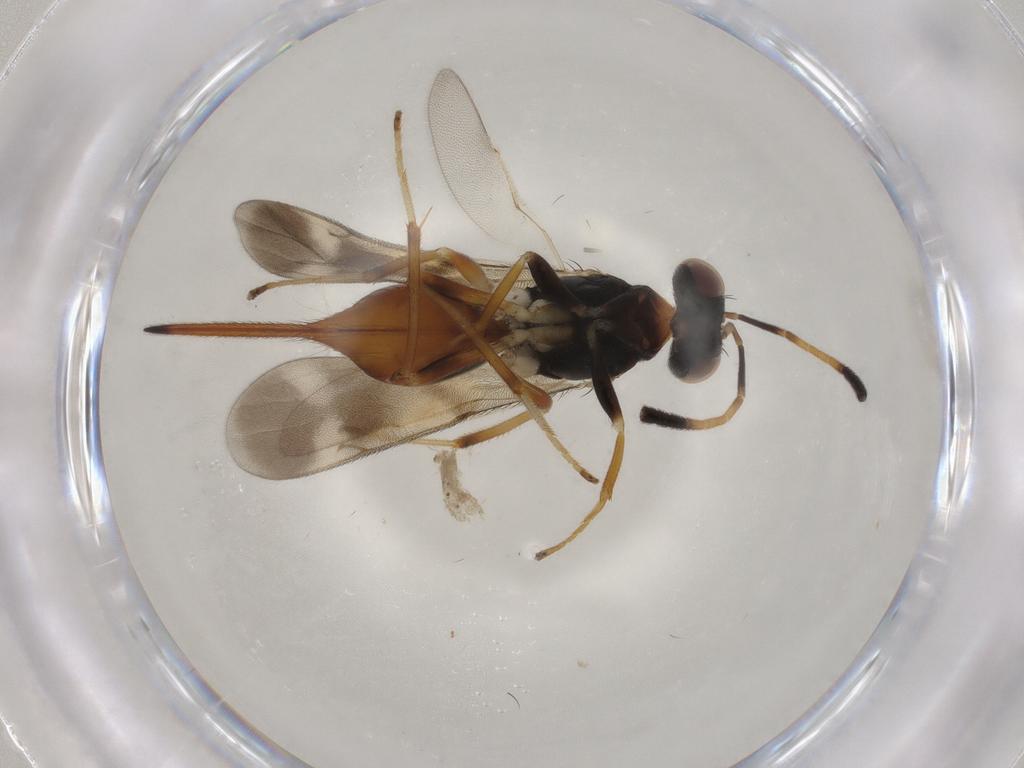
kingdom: Animalia
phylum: Arthropoda
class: Insecta
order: Hymenoptera
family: Diparidae
